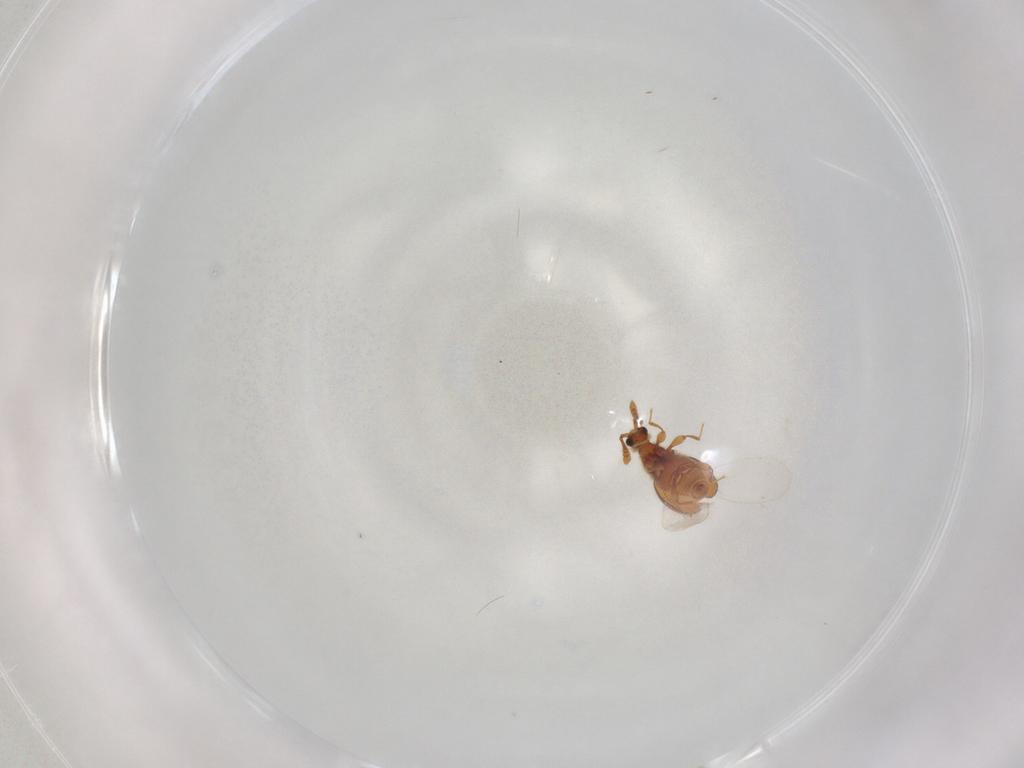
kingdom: Animalia
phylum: Arthropoda
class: Insecta
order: Coleoptera
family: Staphylinidae
